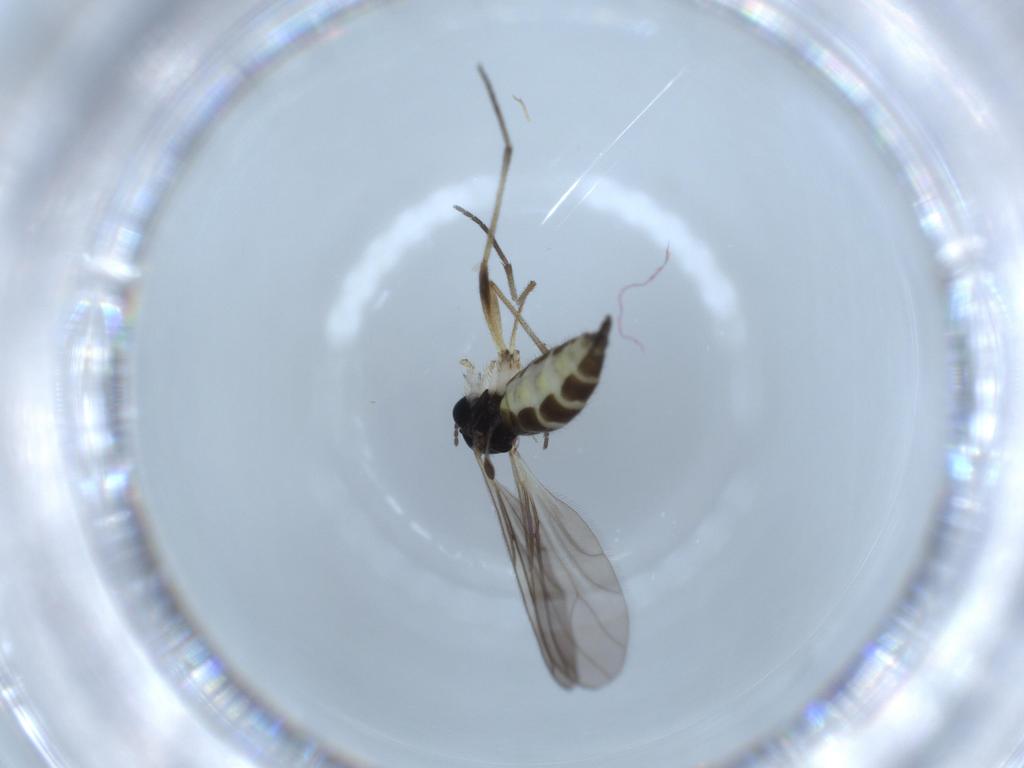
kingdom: Animalia
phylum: Arthropoda
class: Insecta
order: Diptera
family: Sciaridae
